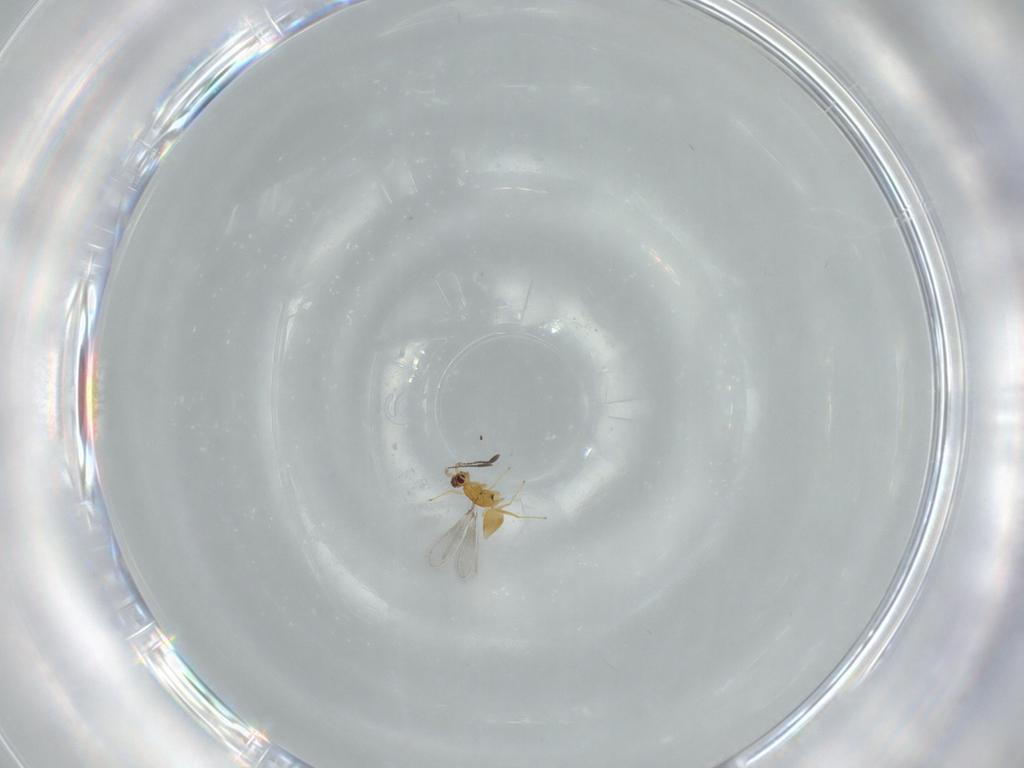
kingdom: Animalia
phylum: Arthropoda
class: Insecta
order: Hymenoptera
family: Mymaridae
